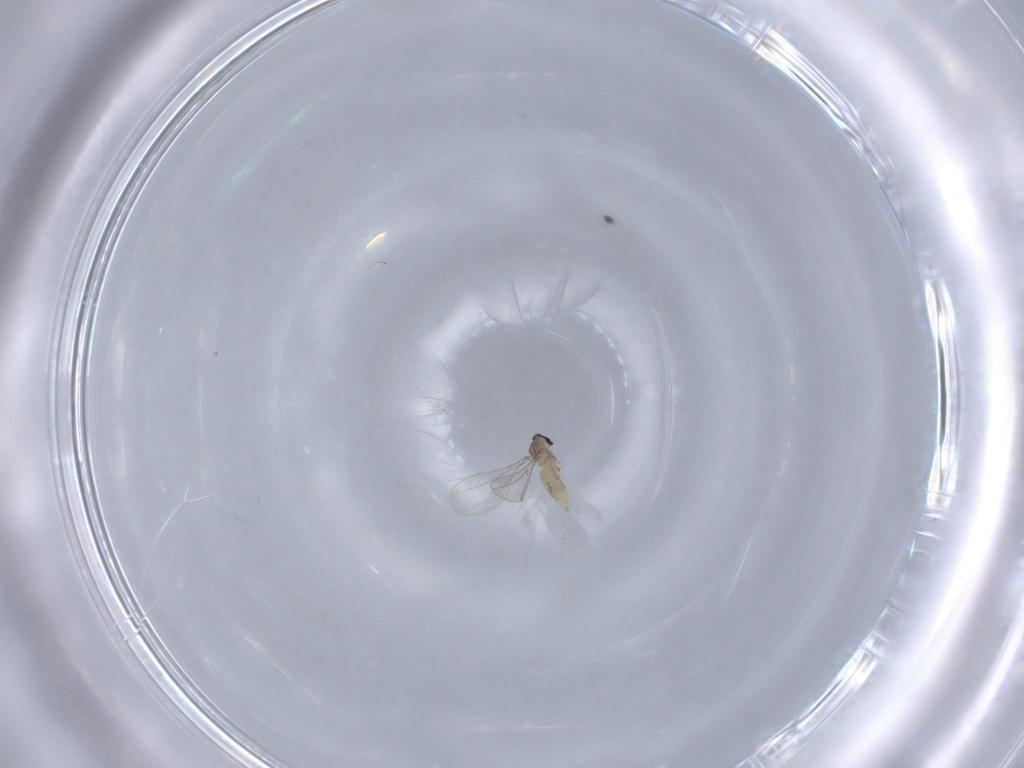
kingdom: Animalia
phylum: Arthropoda
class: Insecta
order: Diptera
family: Cecidomyiidae
